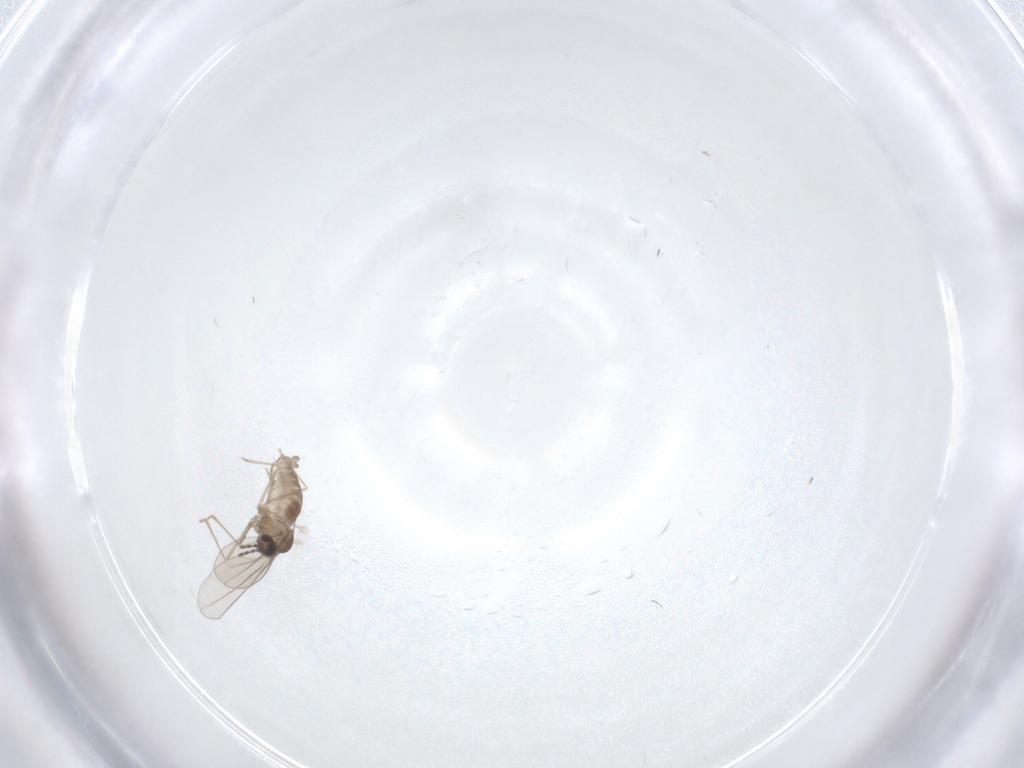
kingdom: Animalia
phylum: Arthropoda
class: Insecta
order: Diptera
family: Cecidomyiidae
